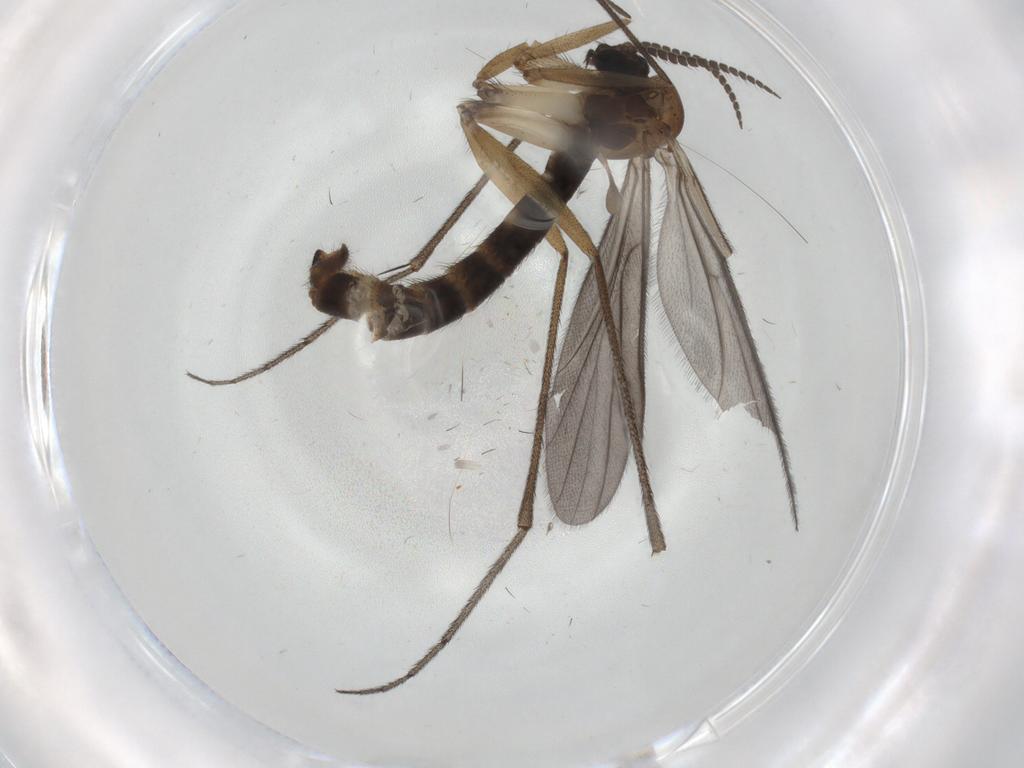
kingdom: Animalia
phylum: Arthropoda
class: Insecta
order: Diptera
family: Chironomidae
